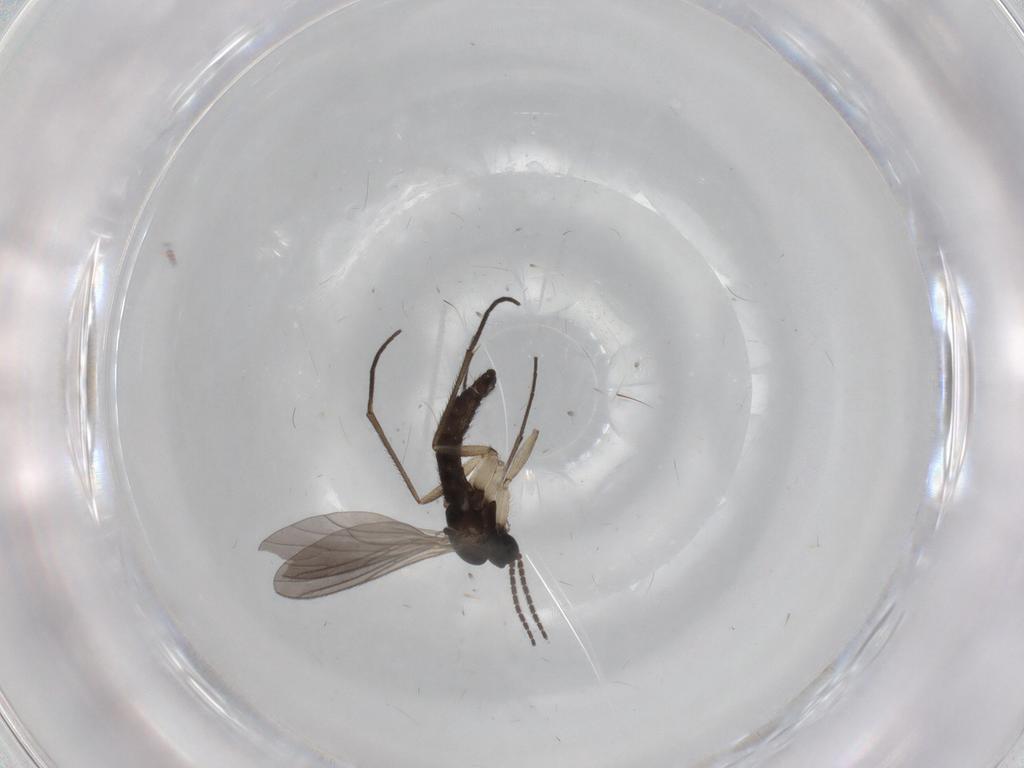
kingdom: Animalia
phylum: Arthropoda
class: Insecta
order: Diptera
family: Sciaridae
